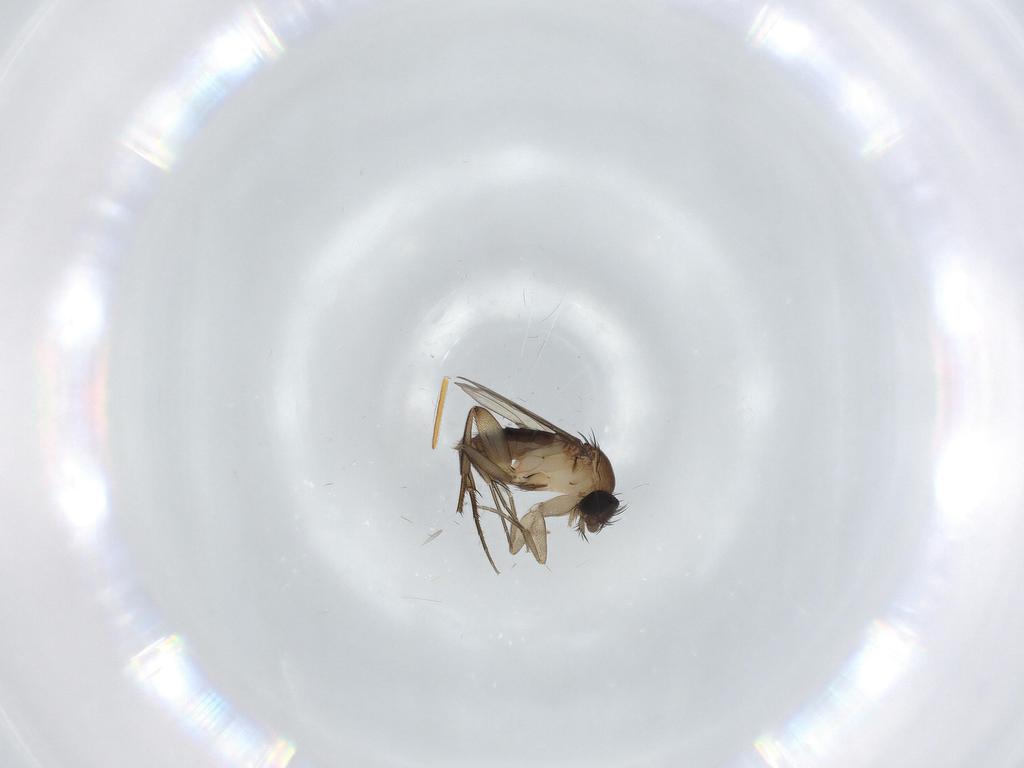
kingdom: Animalia
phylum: Arthropoda
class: Insecta
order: Diptera
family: Phoridae
